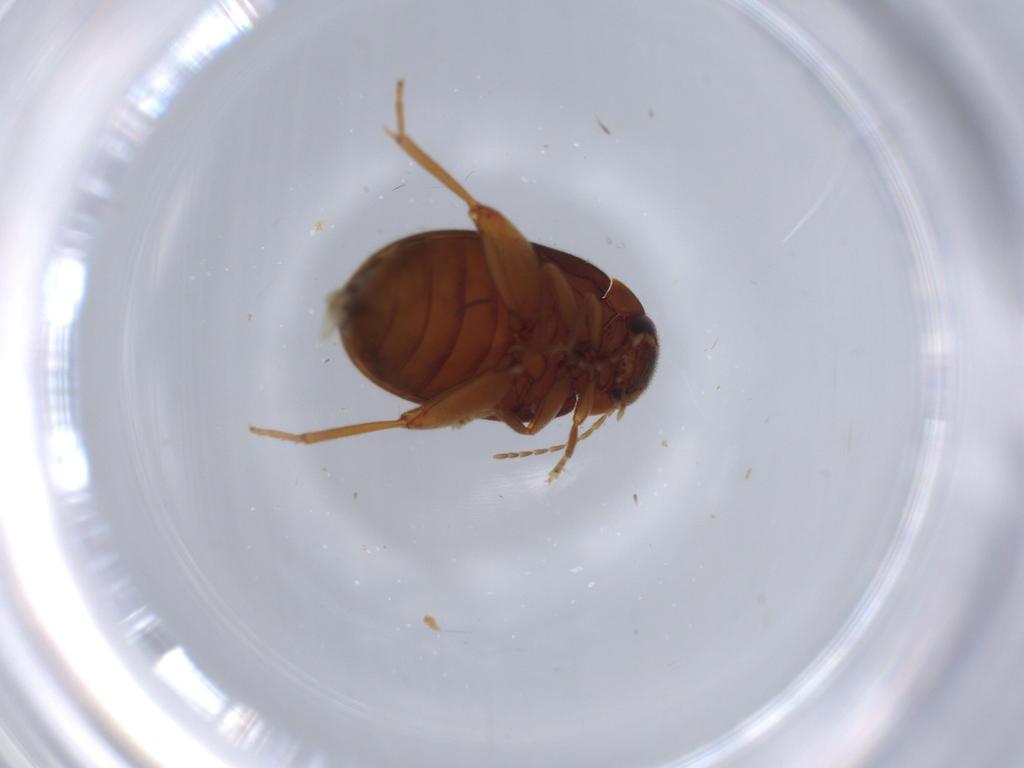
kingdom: Animalia
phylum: Arthropoda
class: Insecta
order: Coleoptera
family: Scirtidae
